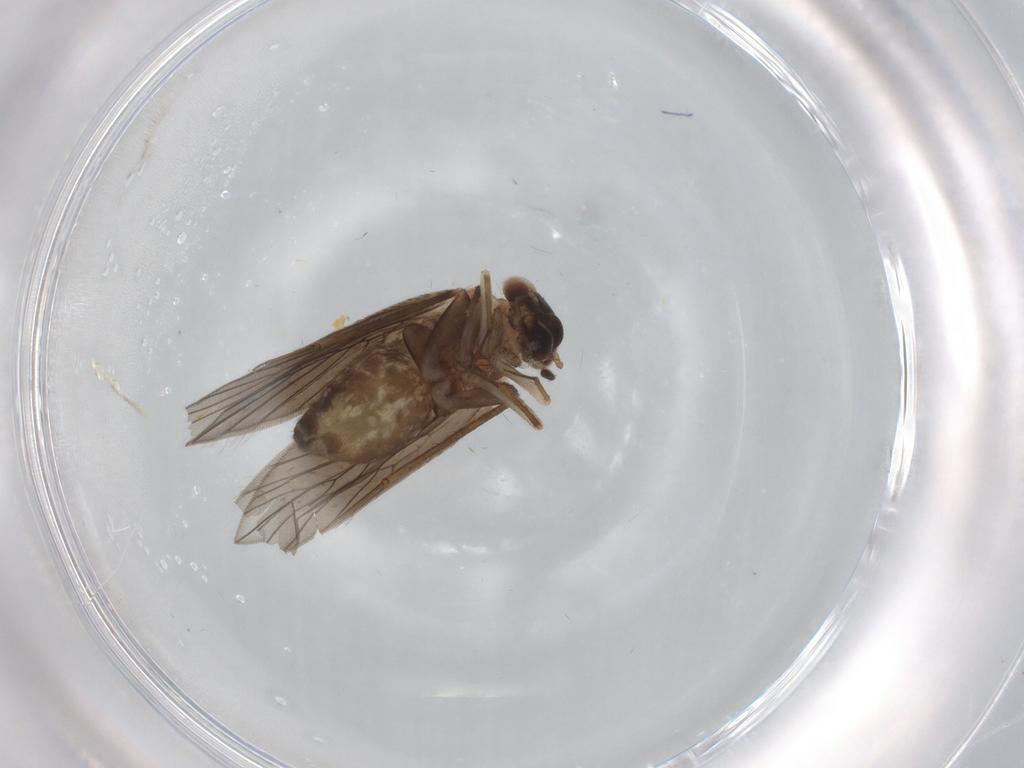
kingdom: Animalia
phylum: Arthropoda
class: Insecta
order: Psocodea
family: Lepidopsocidae
